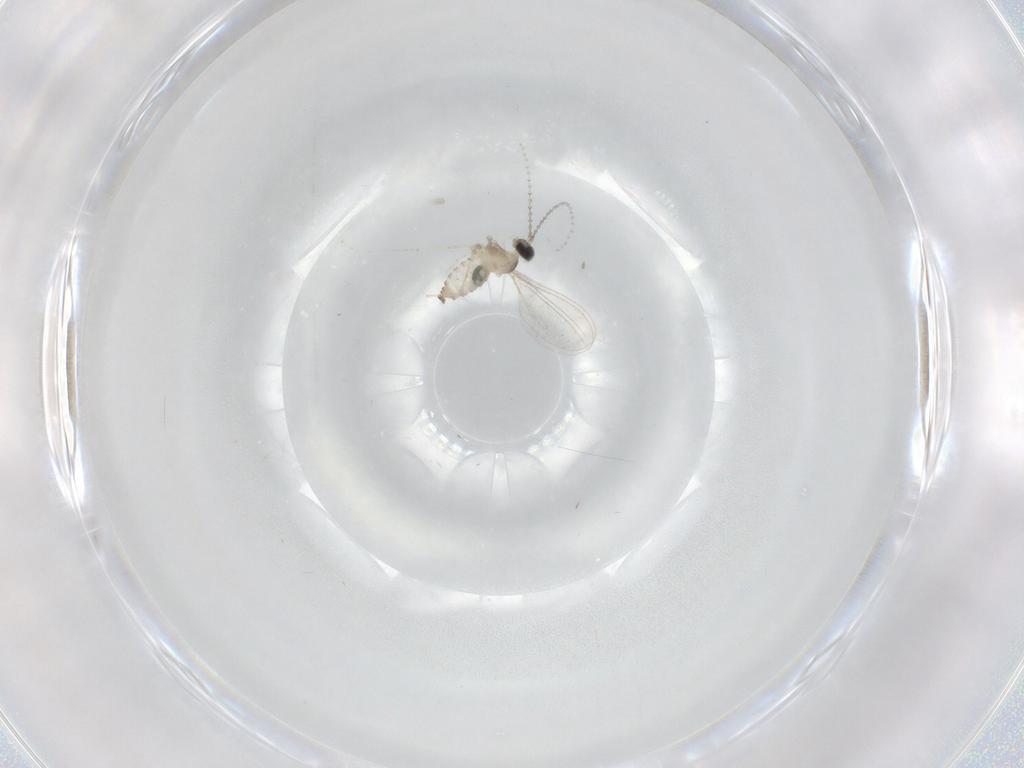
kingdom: Animalia
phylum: Arthropoda
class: Insecta
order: Diptera
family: Cecidomyiidae
